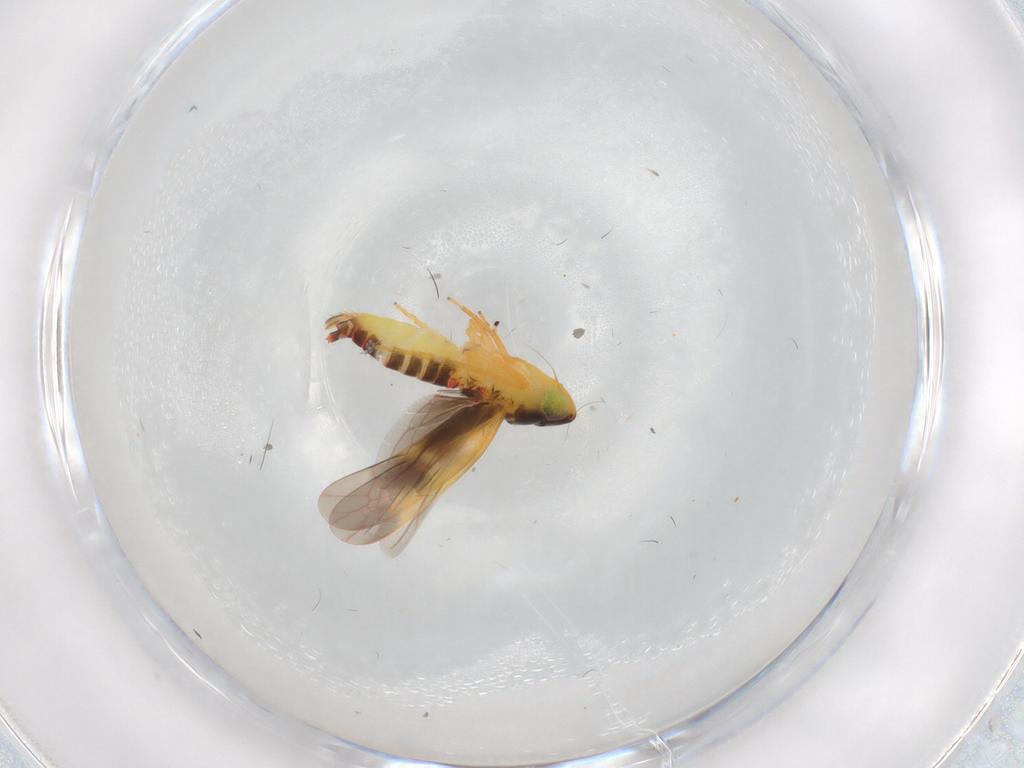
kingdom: Animalia
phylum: Arthropoda
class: Insecta
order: Hemiptera
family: Cicadellidae
